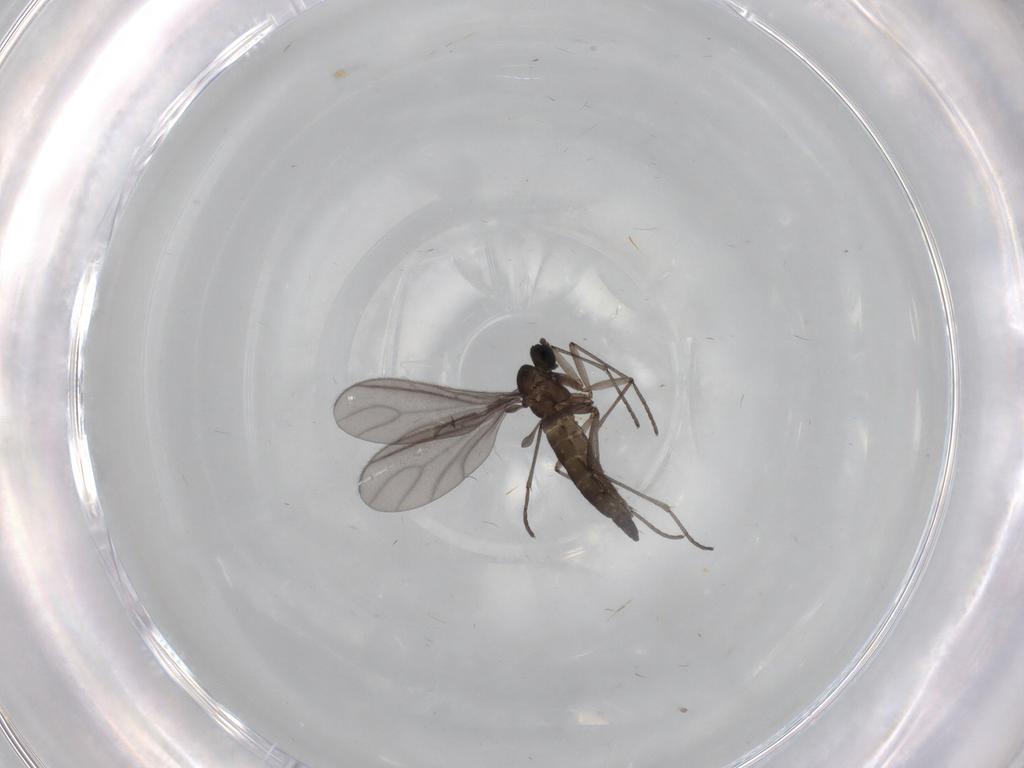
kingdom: Animalia
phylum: Arthropoda
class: Insecta
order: Diptera
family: Sciaridae
